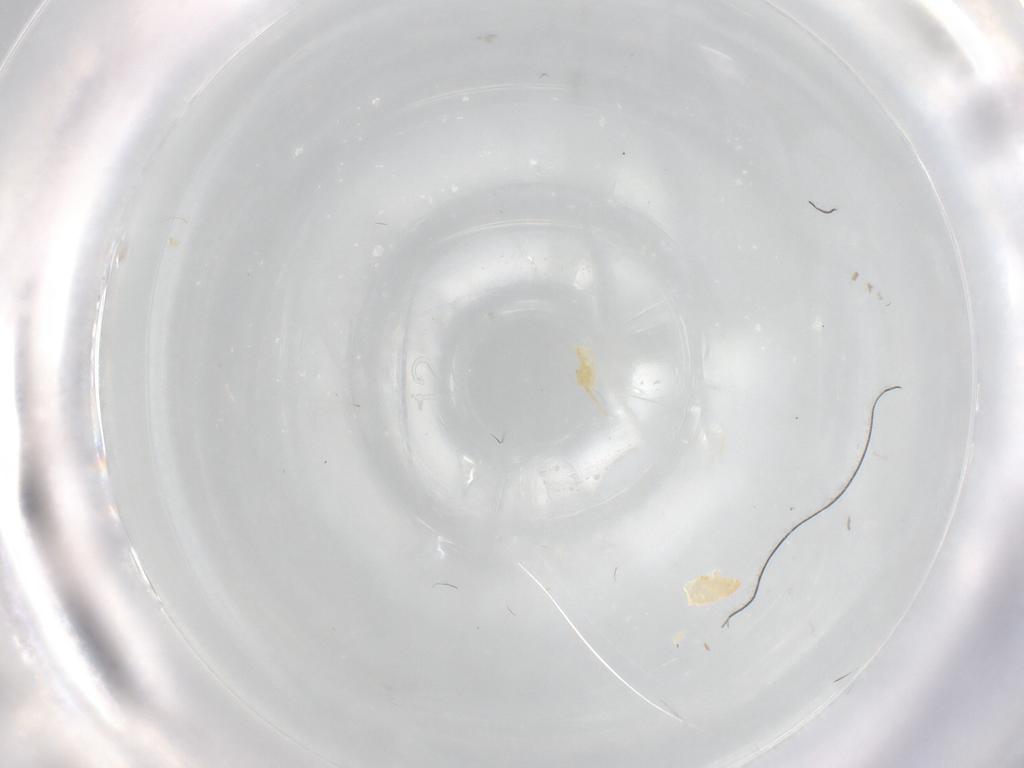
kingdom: Animalia
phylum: Arthropoda
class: Insecta
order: Diptera
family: Chironomidae
